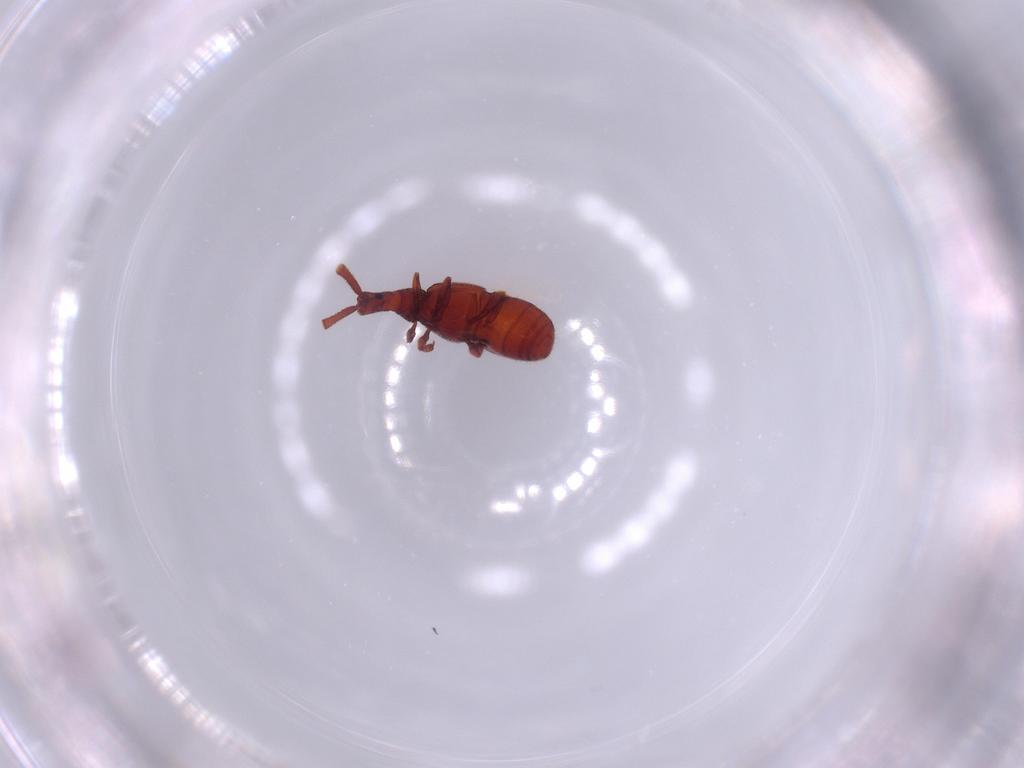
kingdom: Animalia
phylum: Arthropoda
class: Insecta
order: Coleoptera
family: Staphylinidae
